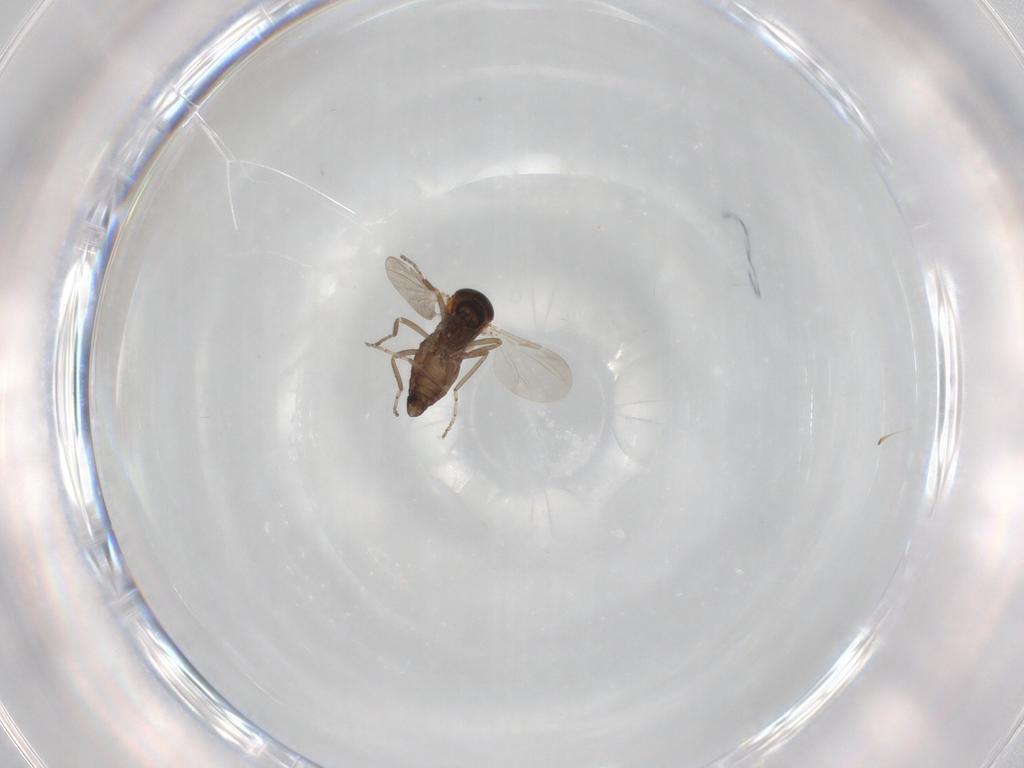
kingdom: Animalia
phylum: Arthropoda
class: Insecta
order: Diptera
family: Ceratopogonidae
